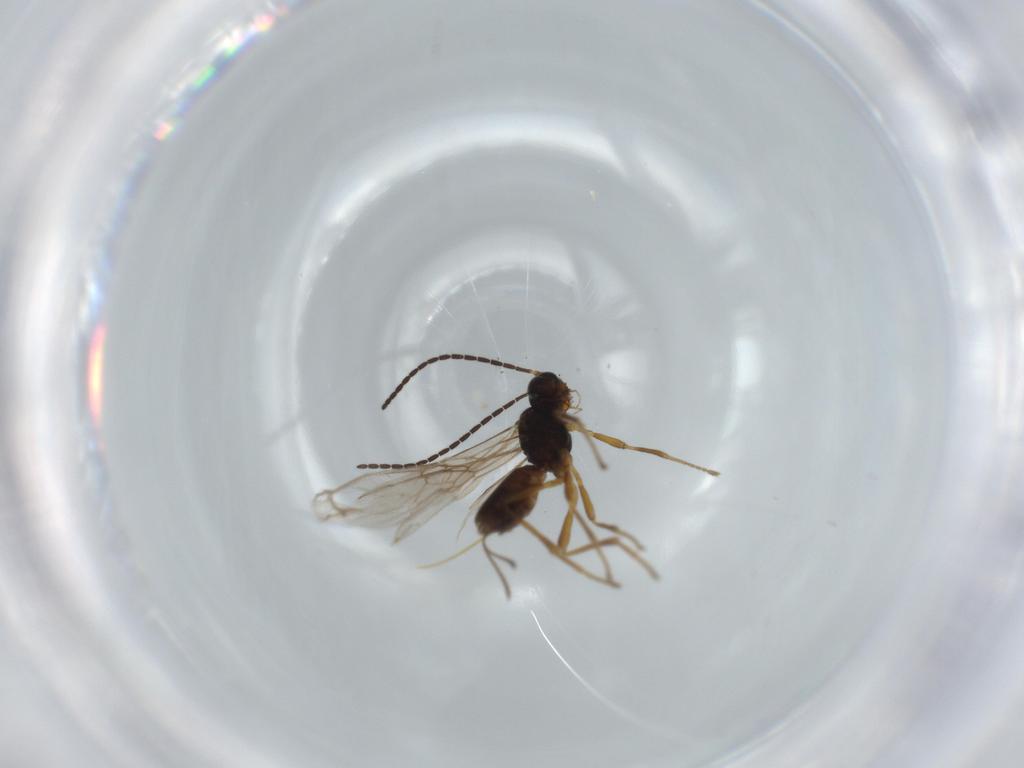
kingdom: Animalia
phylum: Arthropoda
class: Insecta
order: Hymenoptera
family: Braconidae
